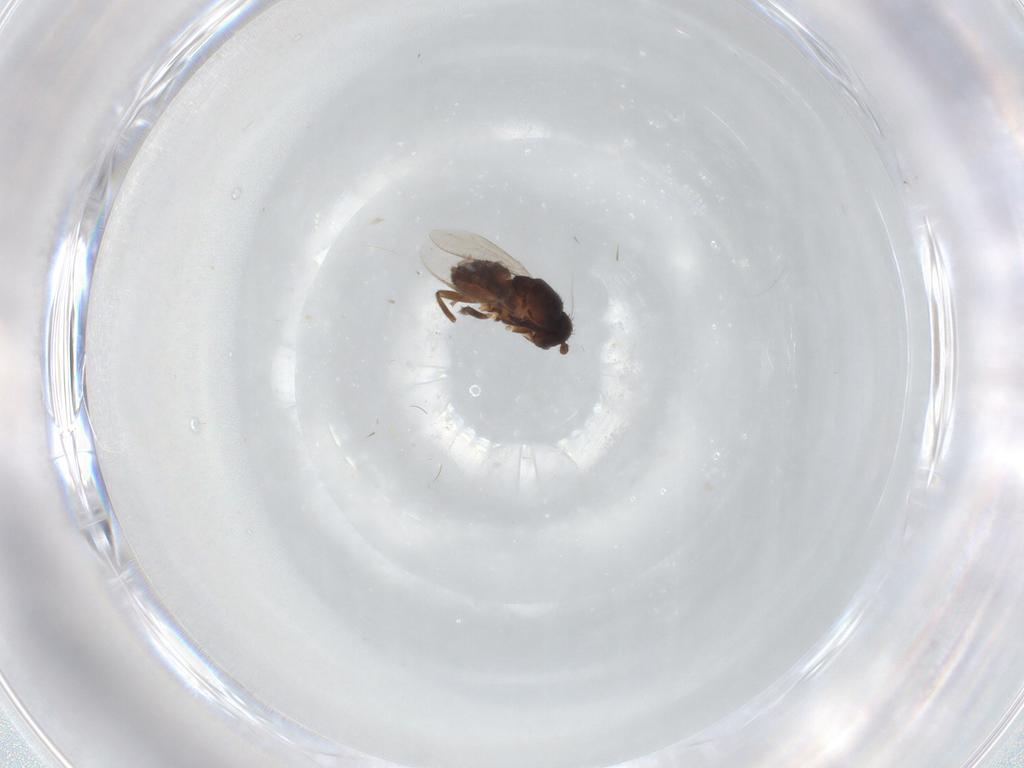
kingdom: Animalia
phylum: Arthropoda
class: Insecta
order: Diptera
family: Sphaeroceridae
